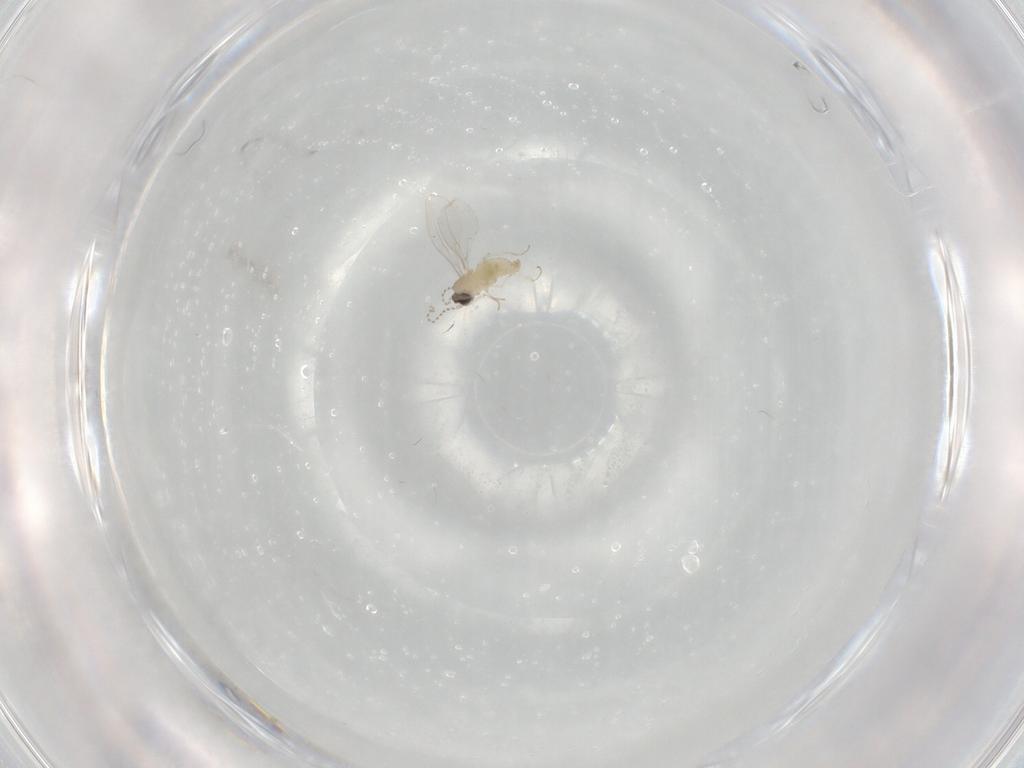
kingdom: Animalia
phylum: Arthropoda
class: Insecta
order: Diptera
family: Cecidomyiidae
